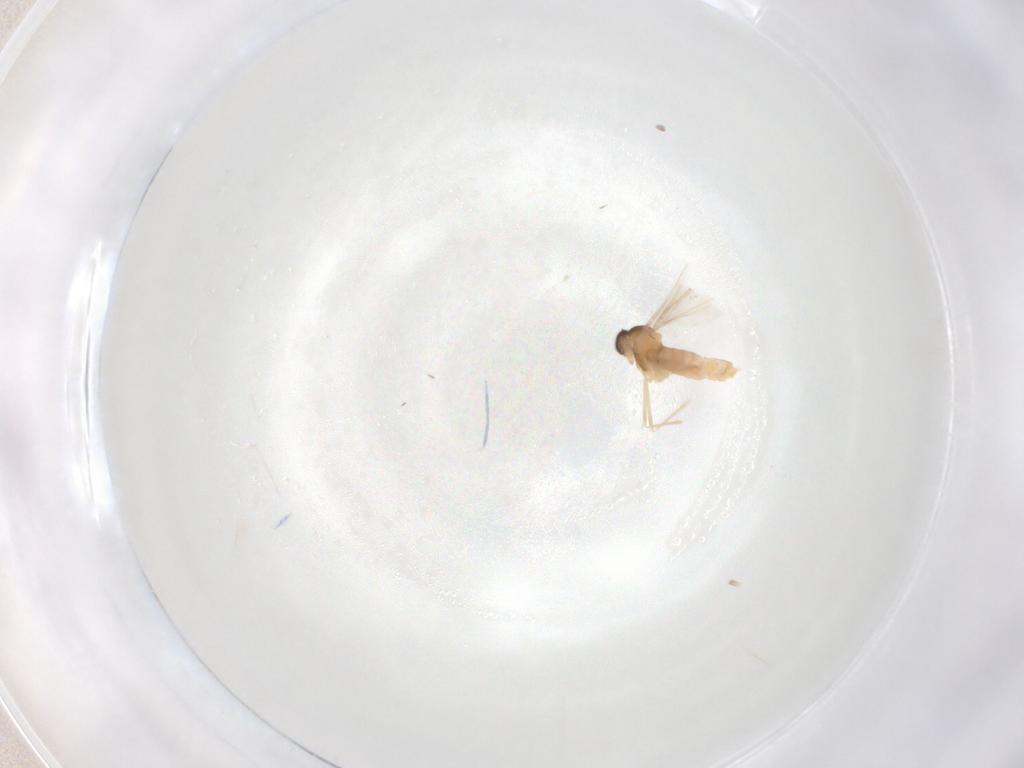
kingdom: Animalia
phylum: Arthropoda
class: Insecta
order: Diptera
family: Cecidomyiidae
